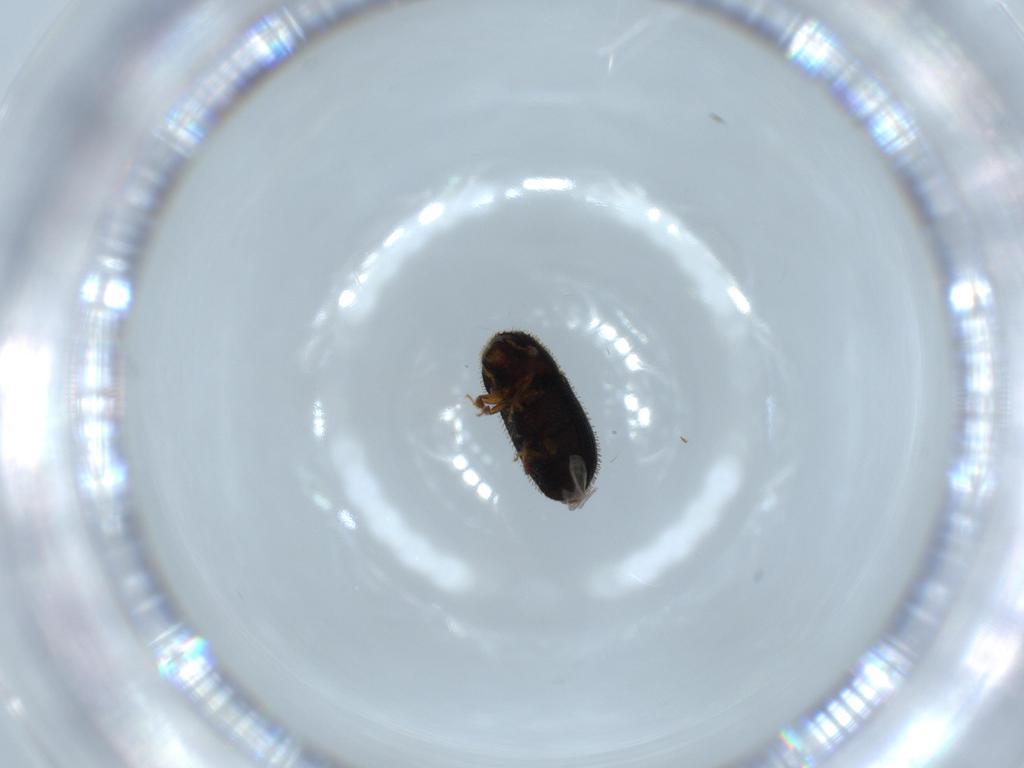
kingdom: Animalia
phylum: Arthropoda
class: Insecta
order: Coleoptera
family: Curculionidae
